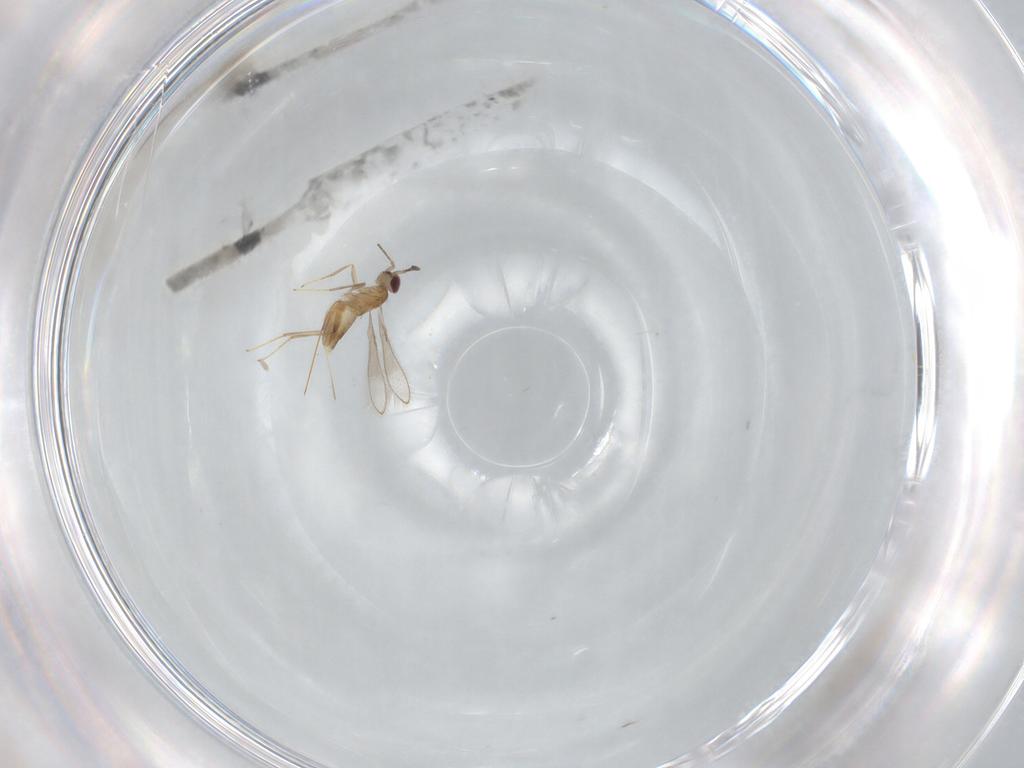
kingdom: Animalia
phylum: Arthropoda
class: Insecta
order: Hymenoptera
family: Mymaridae
